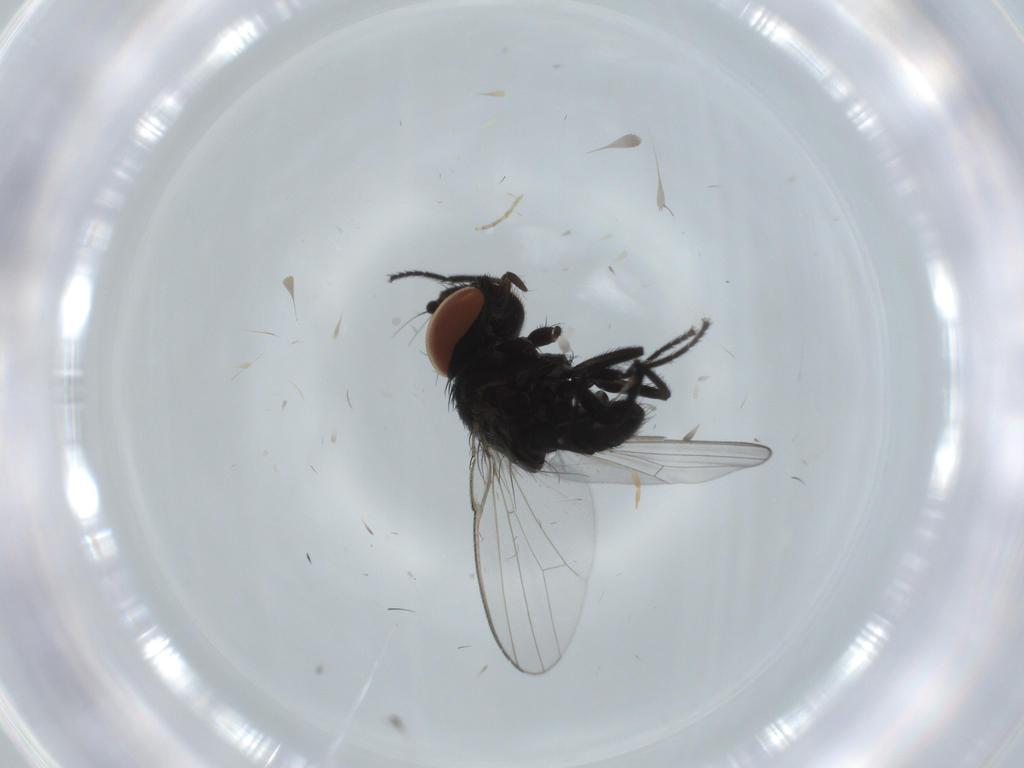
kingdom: Animalia
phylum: Arthropoda
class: Insecta
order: Diptera
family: Milichiidae
